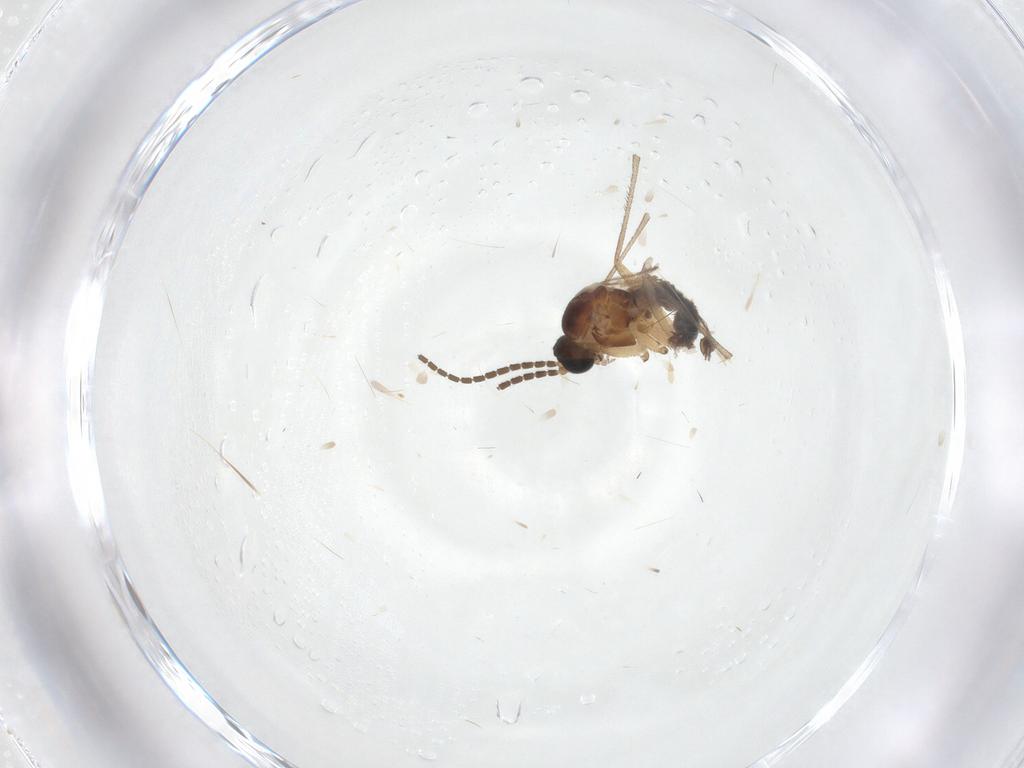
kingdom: Animalia
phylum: Arthropoda
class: Insecta
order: Diptera
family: Sciaridae
